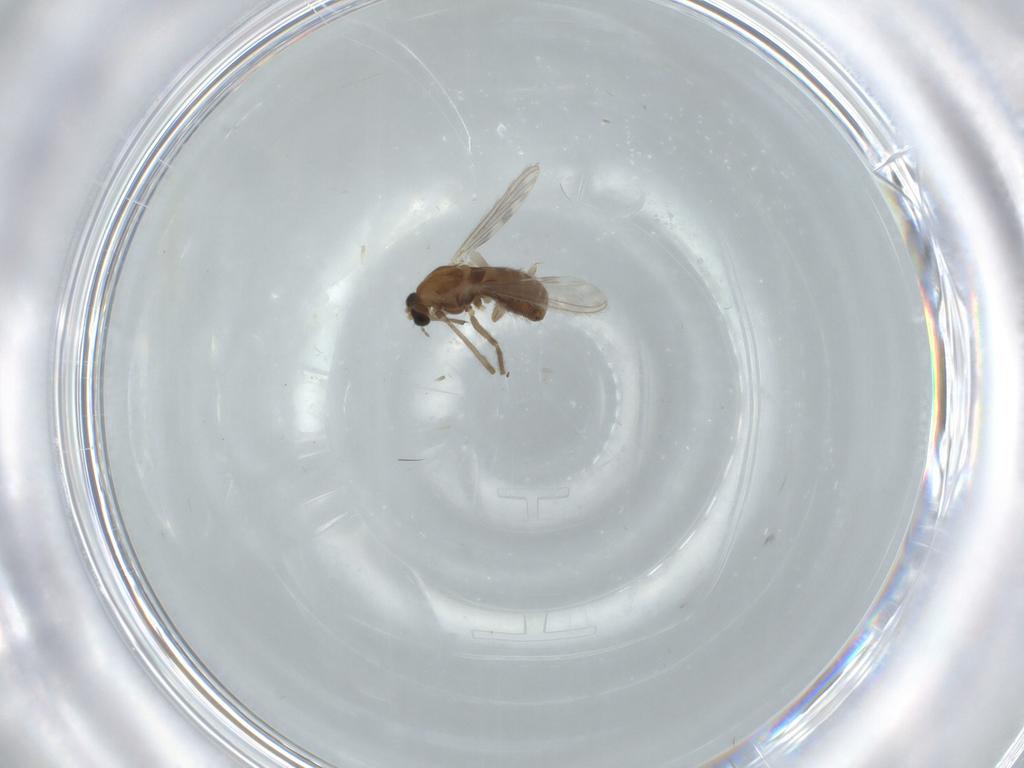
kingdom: Animalia
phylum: Arthropoda
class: Insecta
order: Diptera
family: Chironomidae
